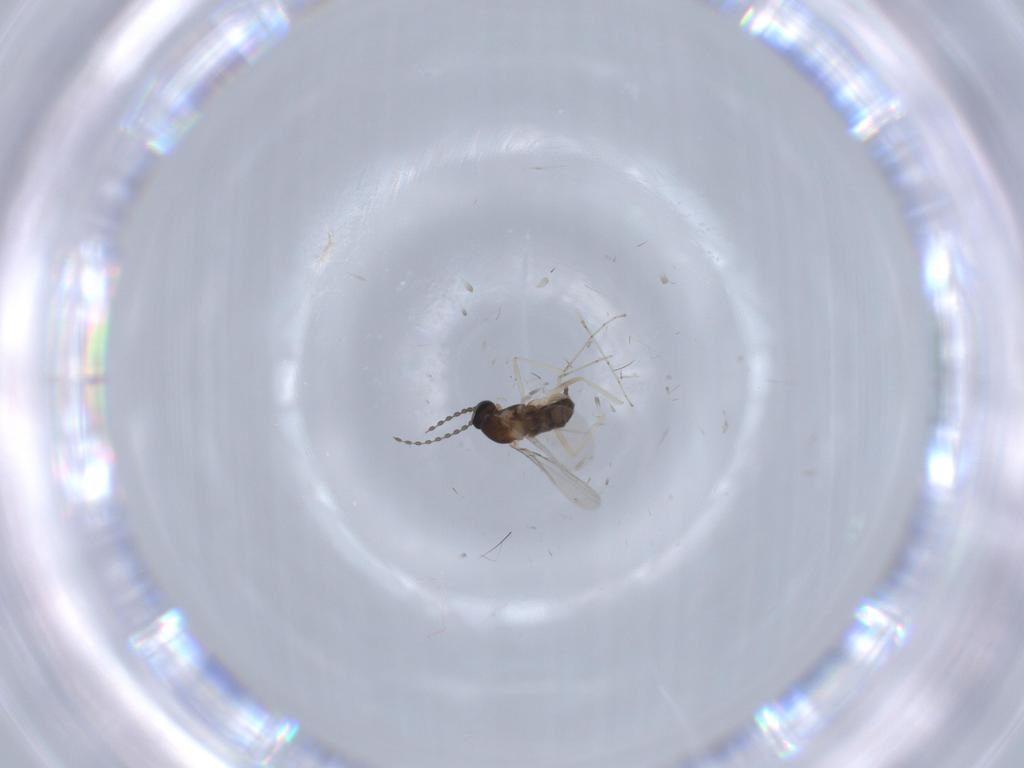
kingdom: Animalia
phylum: Arthropoda
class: Insecta
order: Diptera
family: Cecidomyiidae
